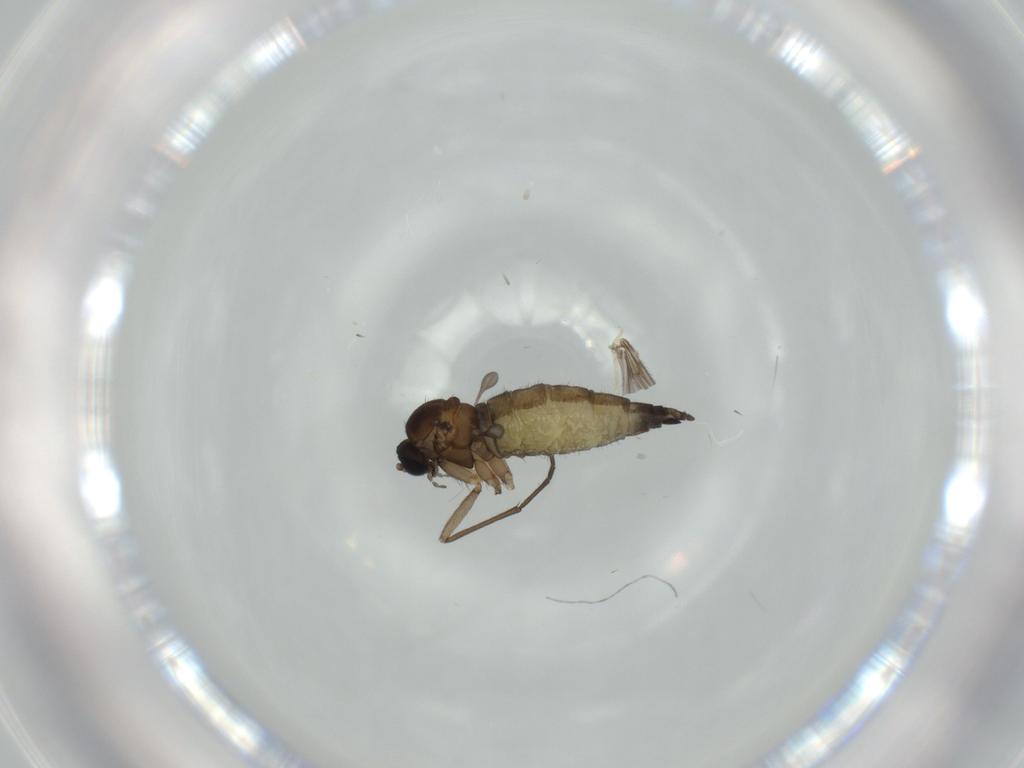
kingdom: Animalia
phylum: Arthropoda
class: Insecta
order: Diptera
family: Sciaridae
